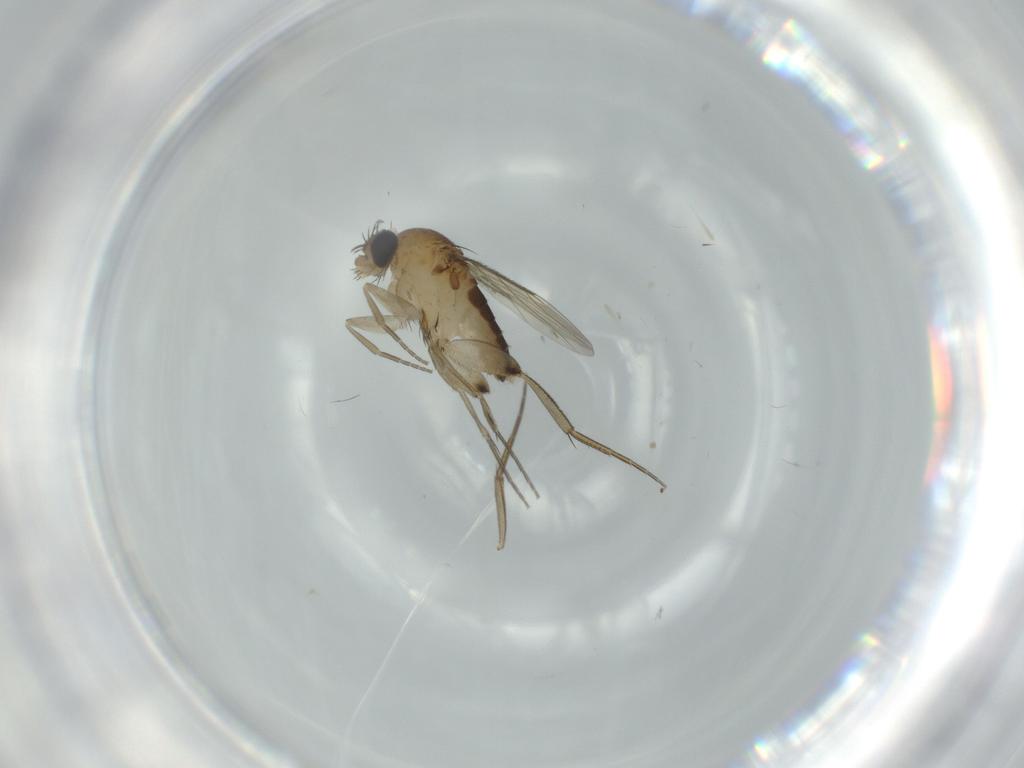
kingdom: Animalia
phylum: Arthropoda
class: Insecta
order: Diptera
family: Phoridae
